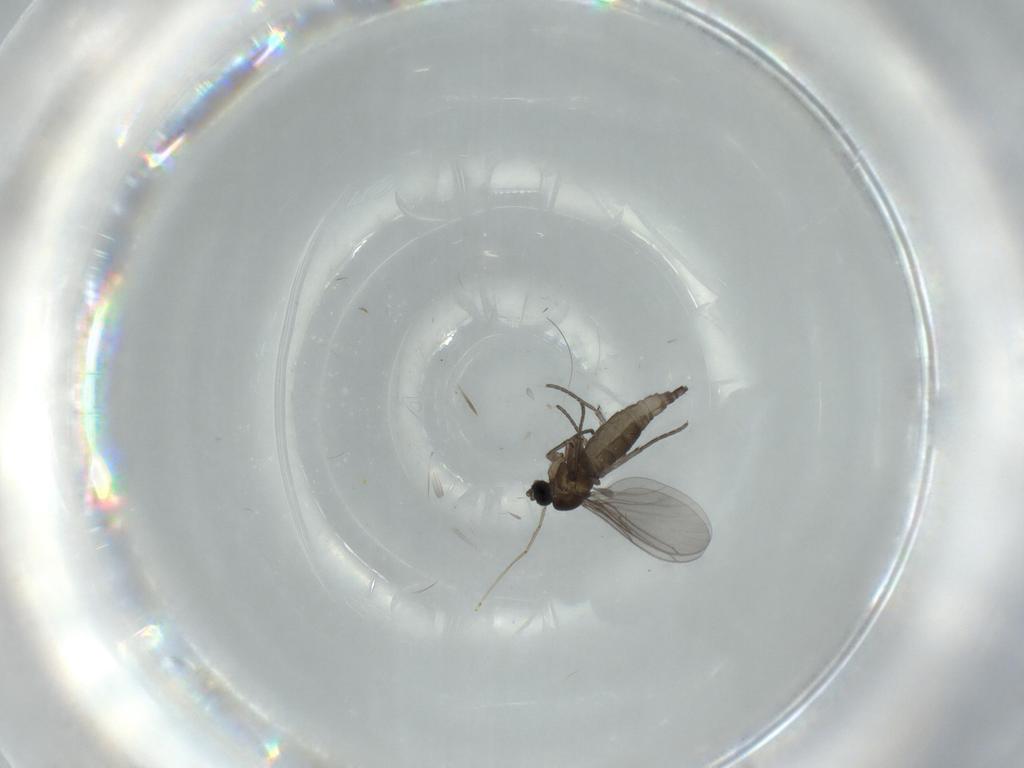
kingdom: Animalia
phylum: Arthropoda
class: Insecta
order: Diptera
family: Cecidomyiidae
